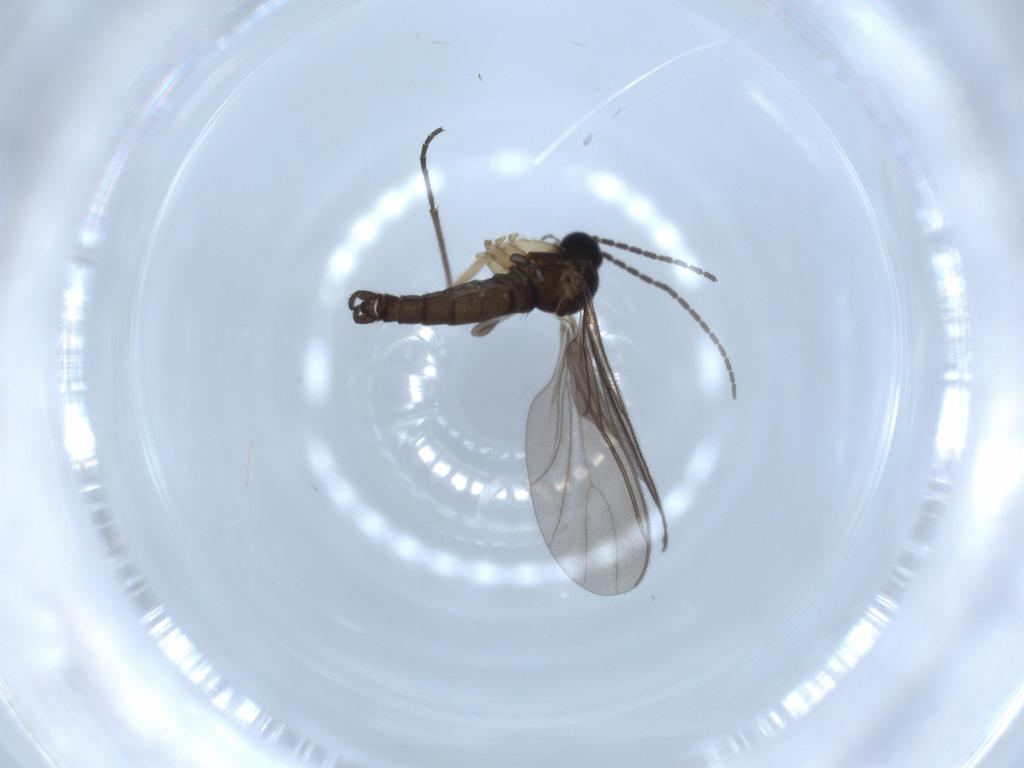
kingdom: Animalia
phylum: Arthropoda
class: Insecta
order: Diptera
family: Sciaridae
